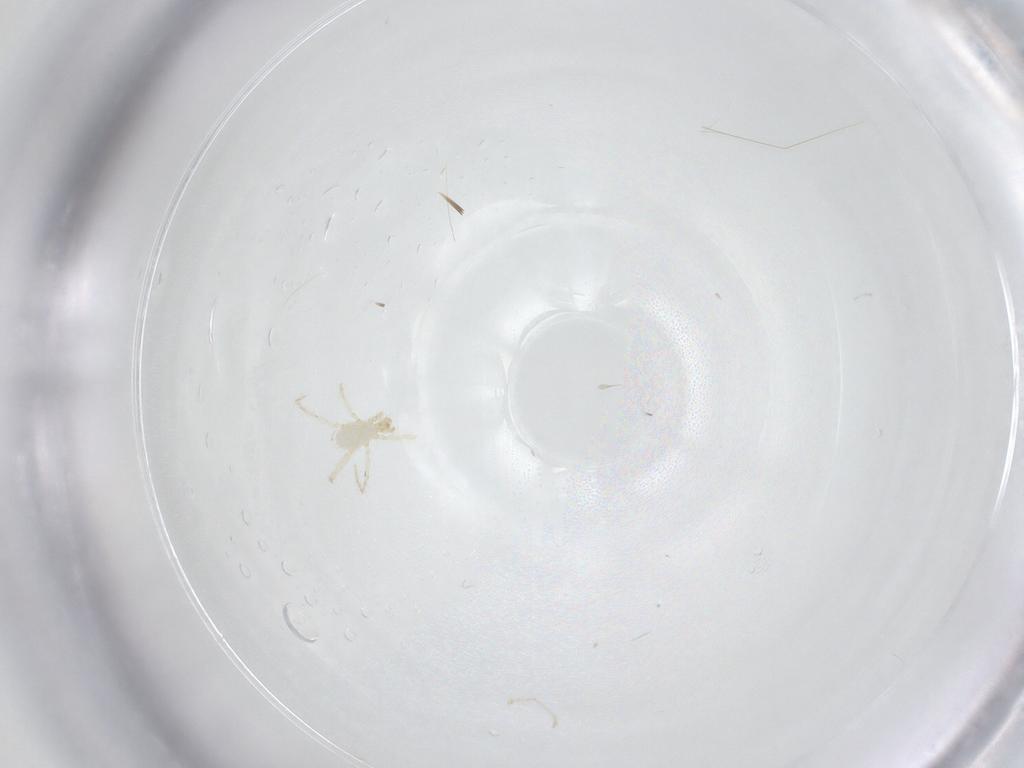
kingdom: Animalia
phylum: Arthropoda
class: Arachnida
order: Trombidiformes
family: Erythraeidae
